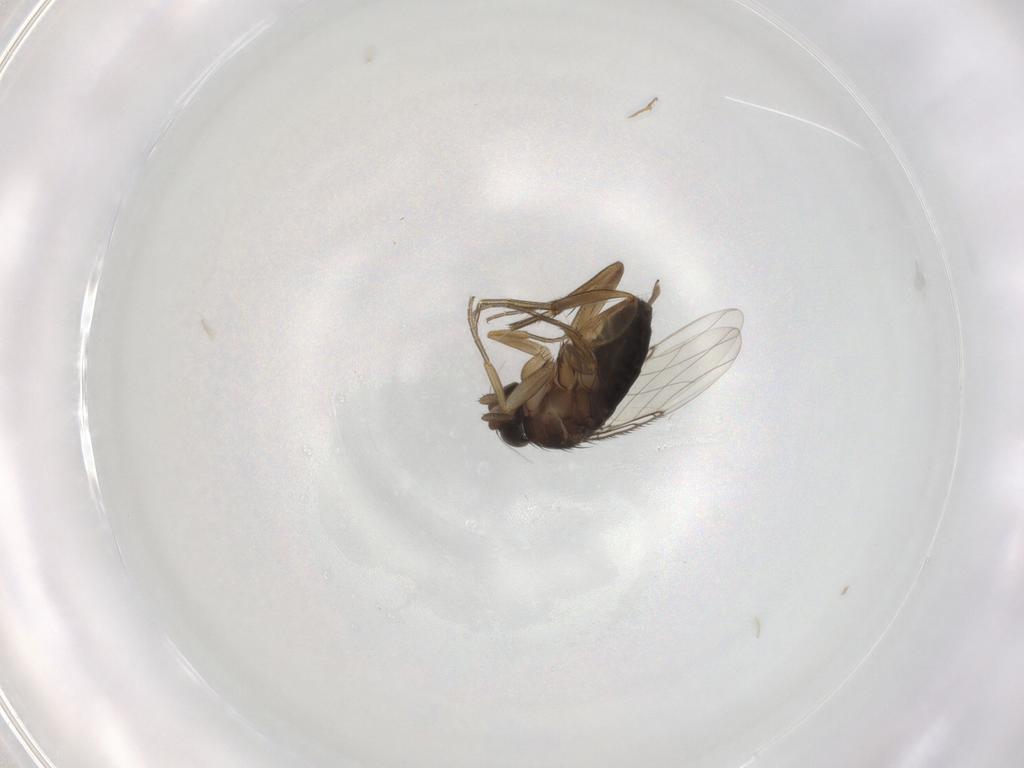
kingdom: Animalia
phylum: Arthropoda
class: Insecta
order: Diptera
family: Phoridae
